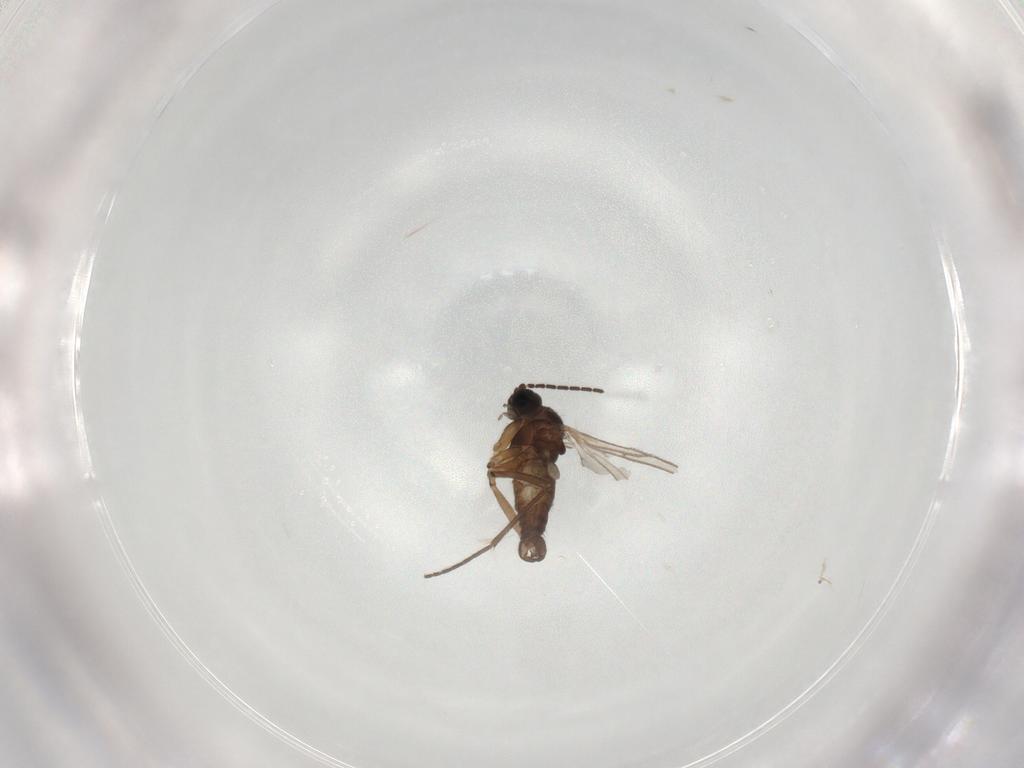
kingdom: Animalia
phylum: Arthropoda
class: Insecta
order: Diptera
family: Sciaridae
